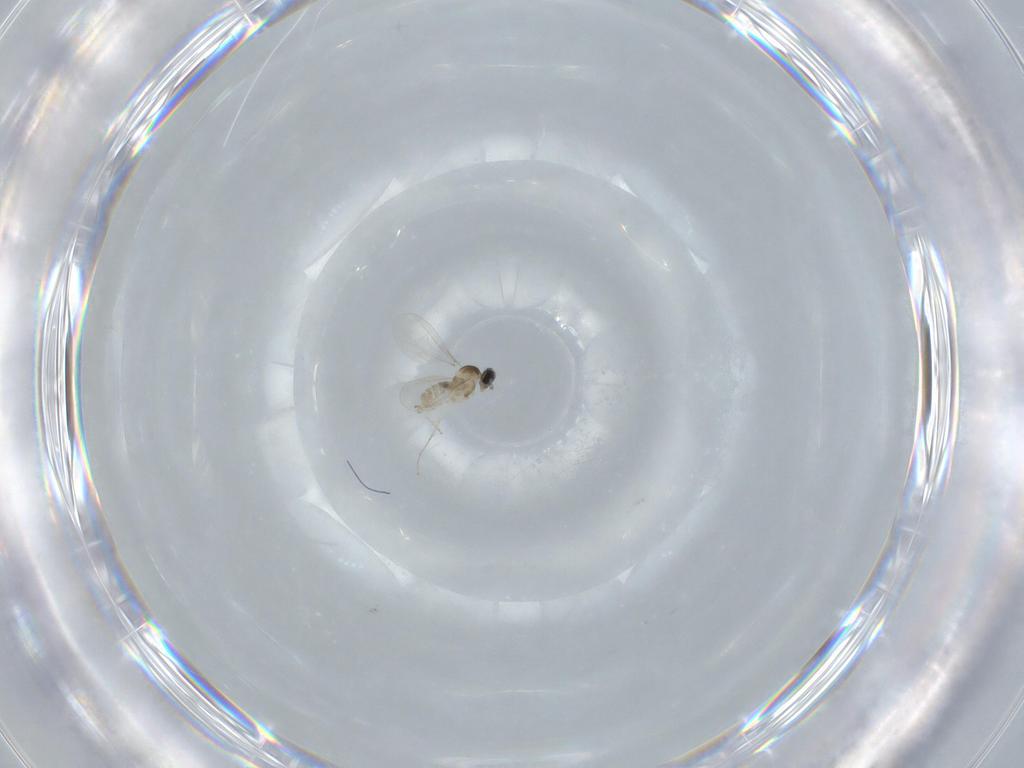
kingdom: Animalia
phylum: Arthropoda
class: Insecta
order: Diptera
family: Cecidomyiidae
